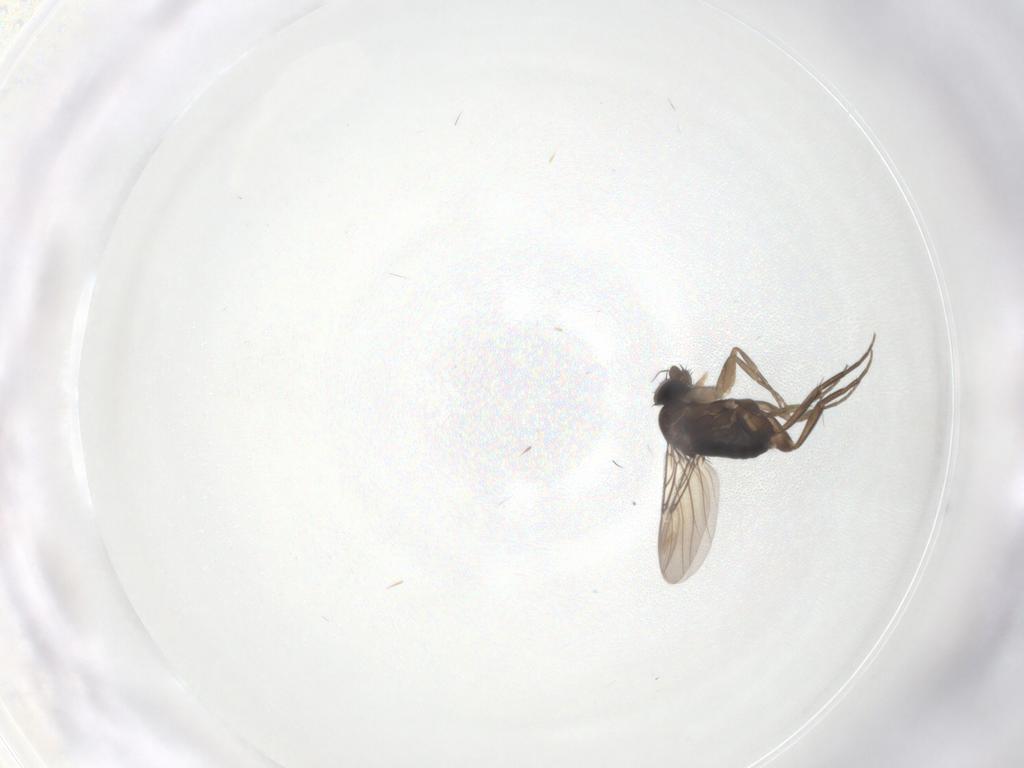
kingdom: Animalia
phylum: Arthropoda
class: Insecta
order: Diptera
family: Phoridae
